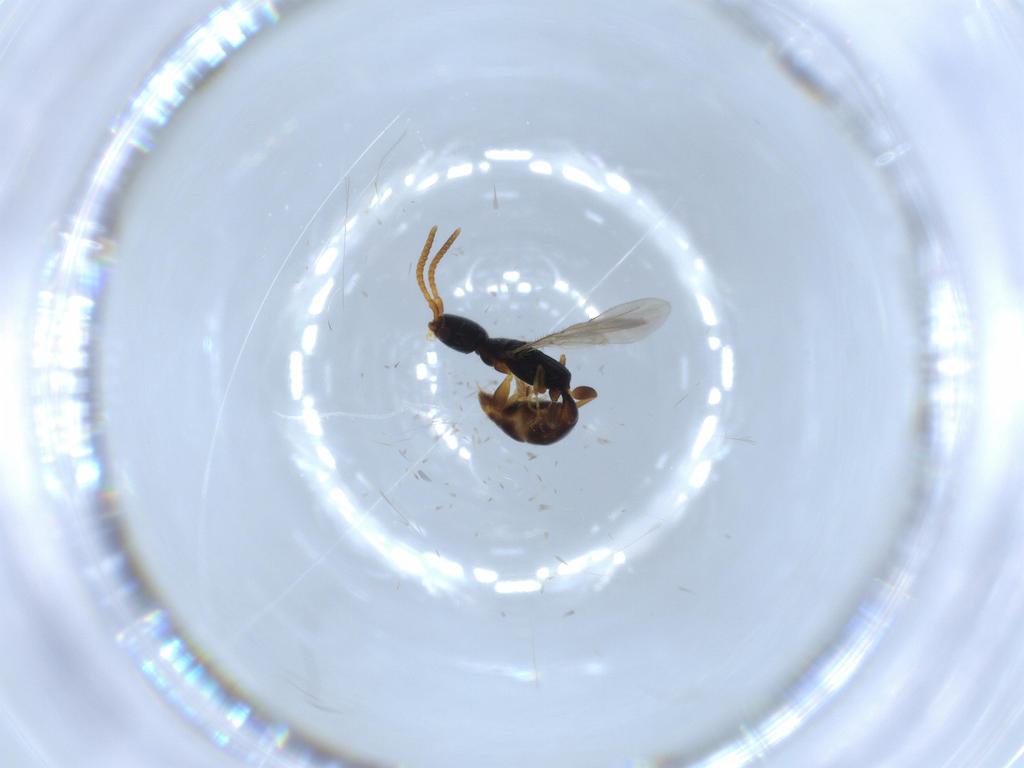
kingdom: Animalia
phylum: Arthropoda
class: Insecta
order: Hymenoptera
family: Bethylidae
